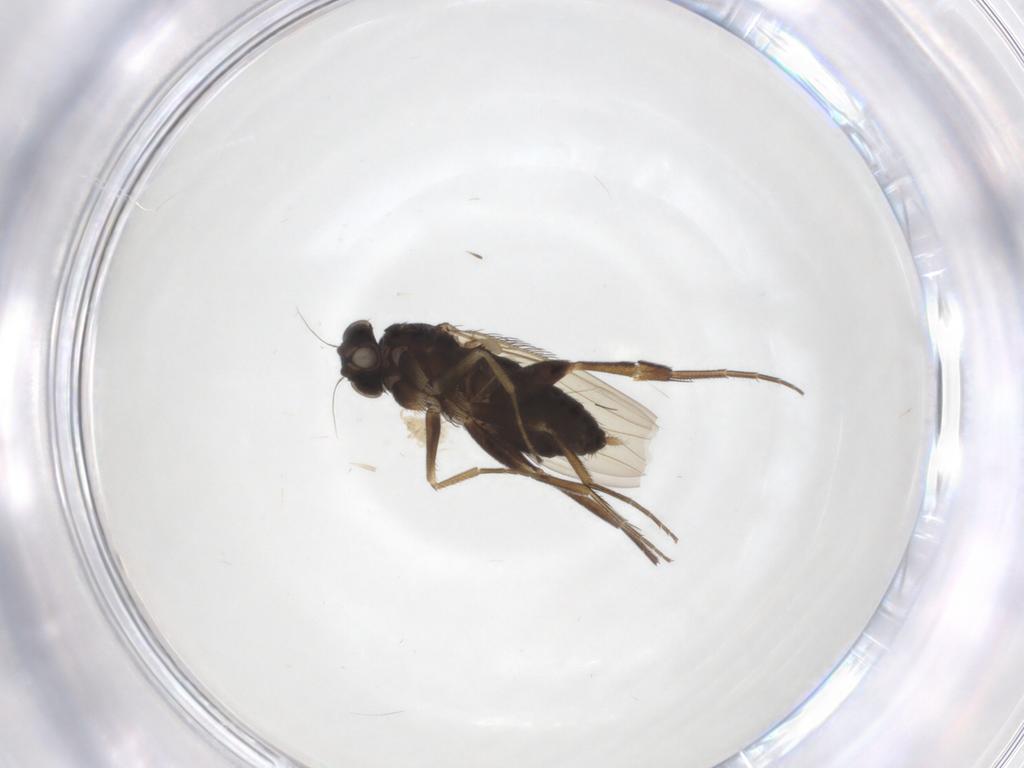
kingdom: Animalia
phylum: Arthropoda
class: Insecta
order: Diptera
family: Phoridae
